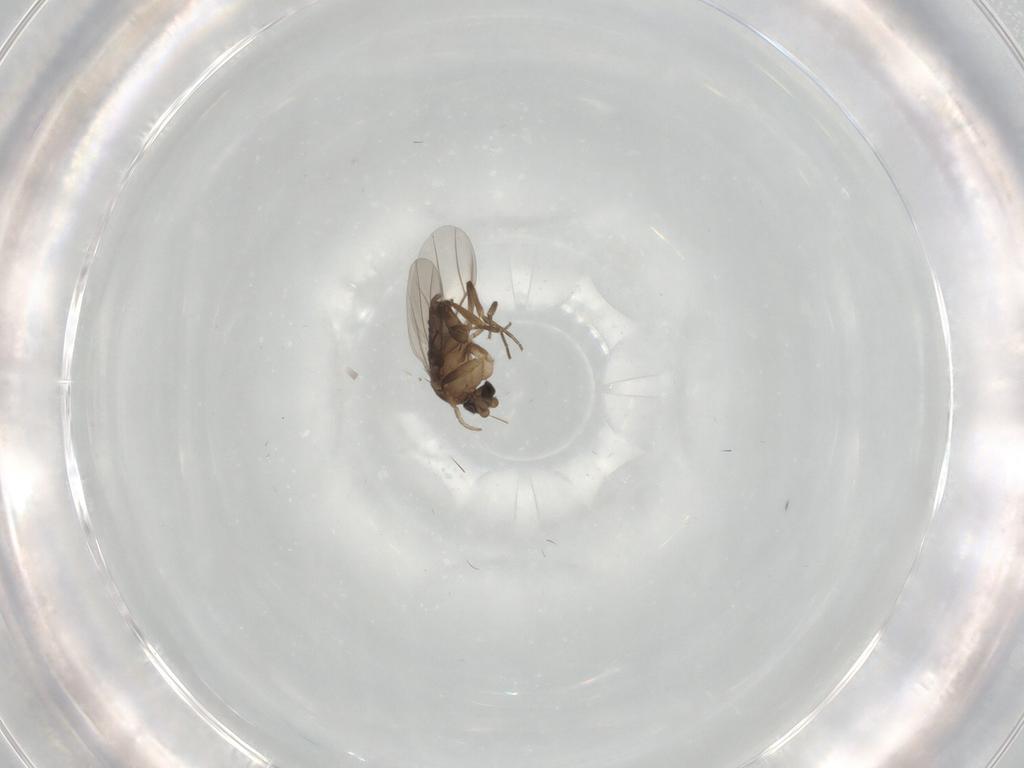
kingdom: Animalia
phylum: Arthropoda
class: Insecta
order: Diptera
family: Phoridae
